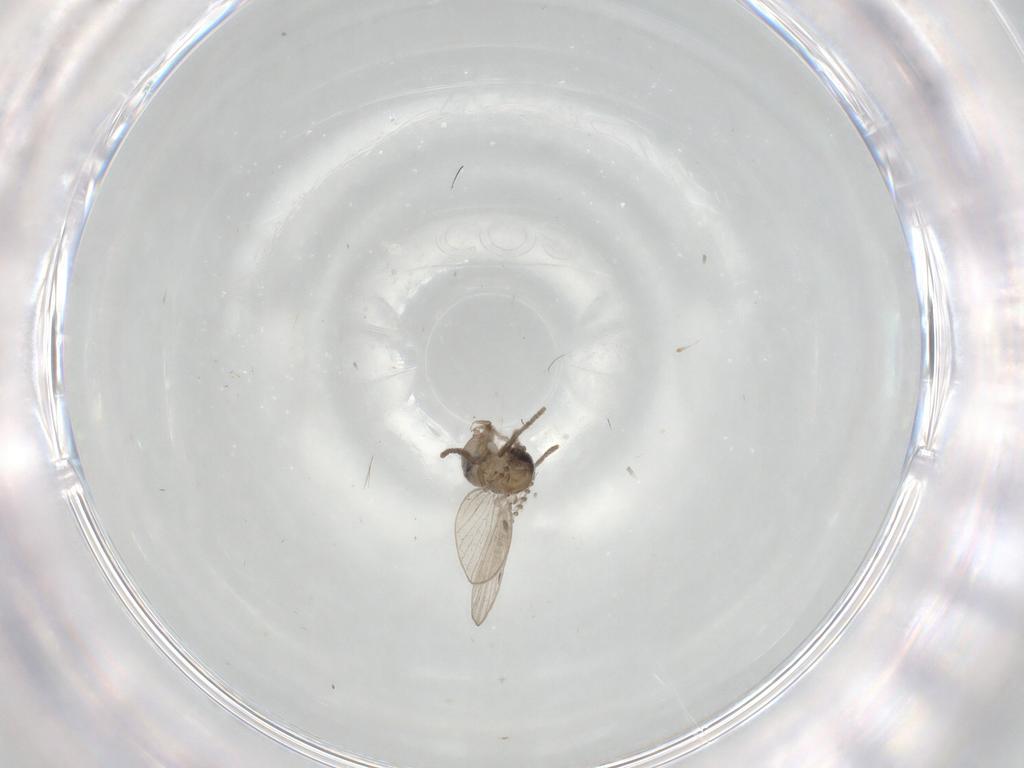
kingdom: Animalia
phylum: Arthropoda
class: Insecta
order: Diptera
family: Psychodidae
